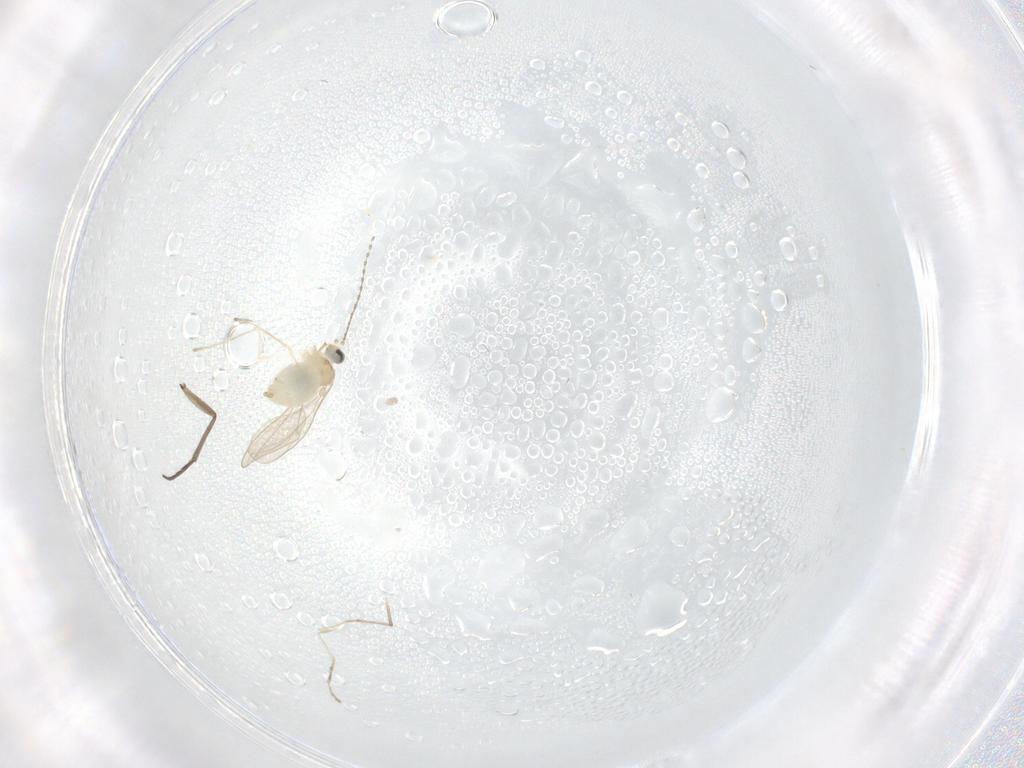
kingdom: Animalia
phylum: Arthropoda
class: Insecta
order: Diptera
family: Sciaridae
